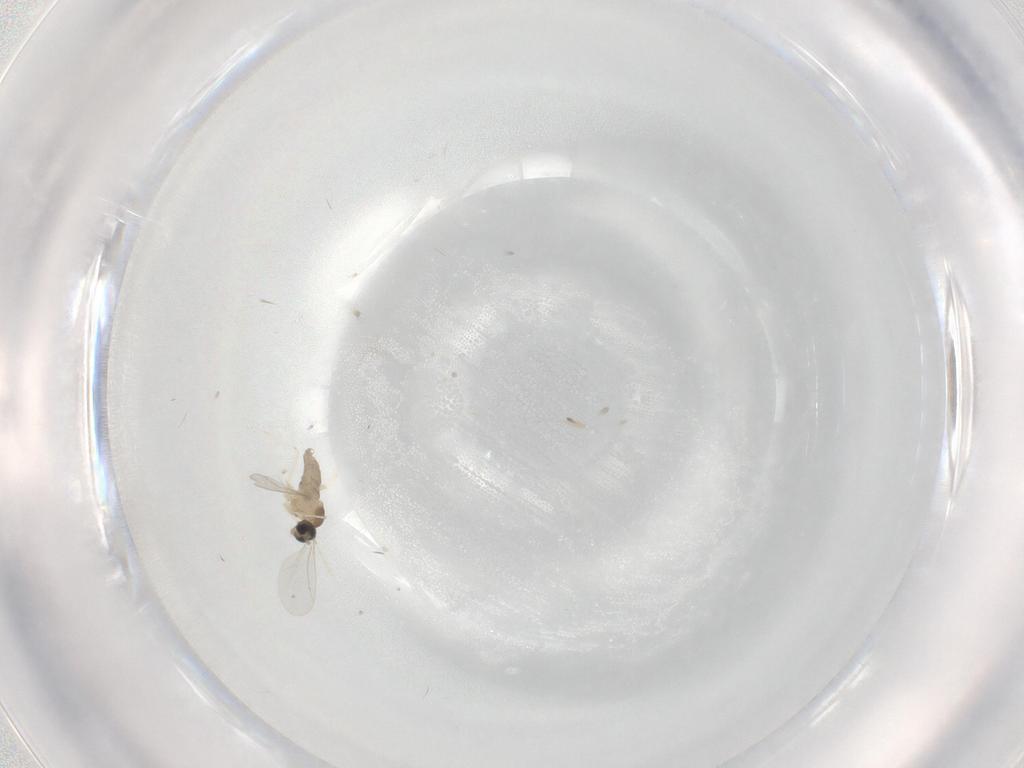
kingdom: Animalia
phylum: Arthropoda
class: Insecta
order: Diptera
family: Cecidomyiidae
